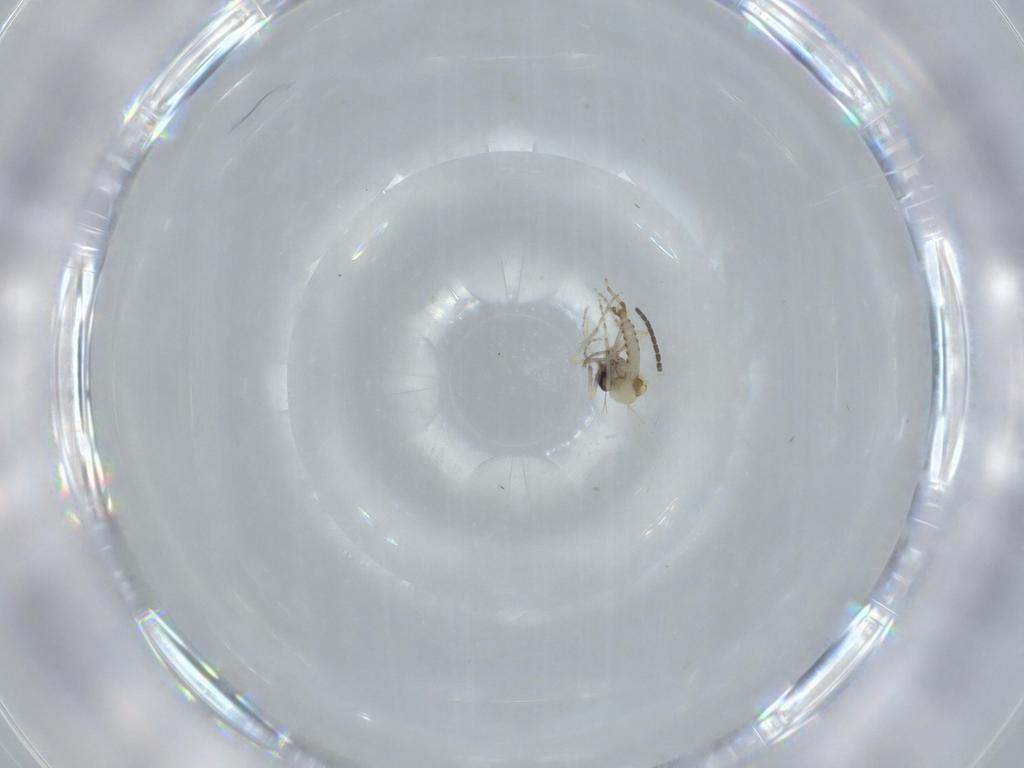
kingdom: Animalia
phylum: Arthropoda
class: Insecta
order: Diptera
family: Ceratopogonidae
